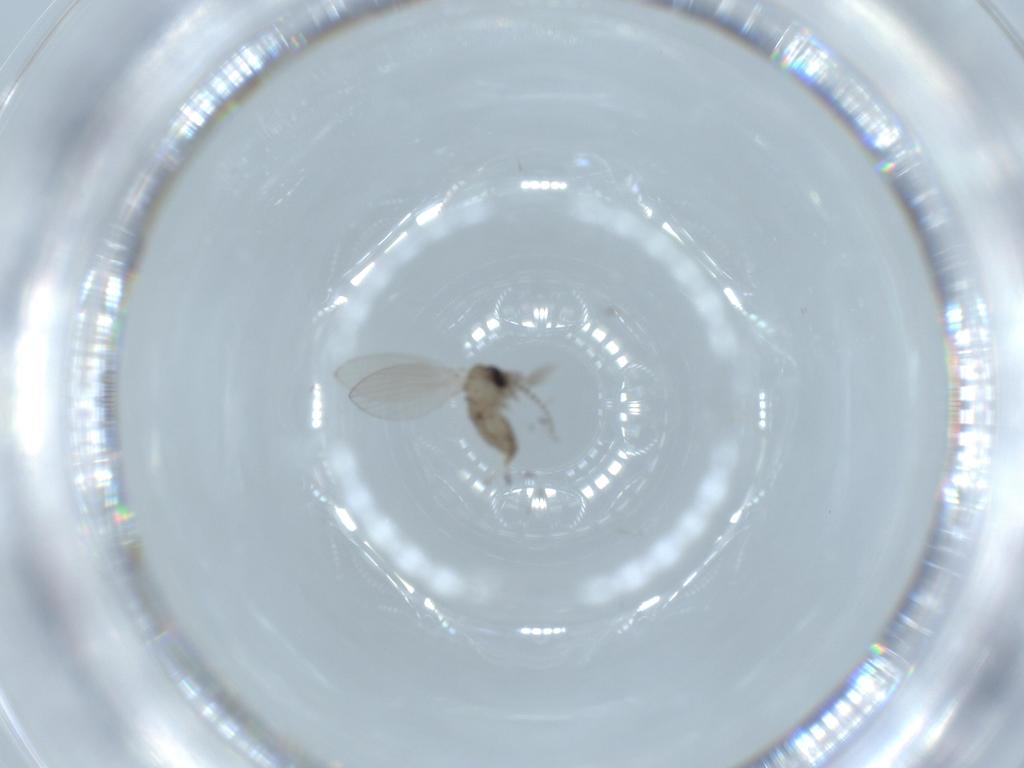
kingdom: Animalia
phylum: Arthropoda
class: Insecta
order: Diptera
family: Psychodidae
